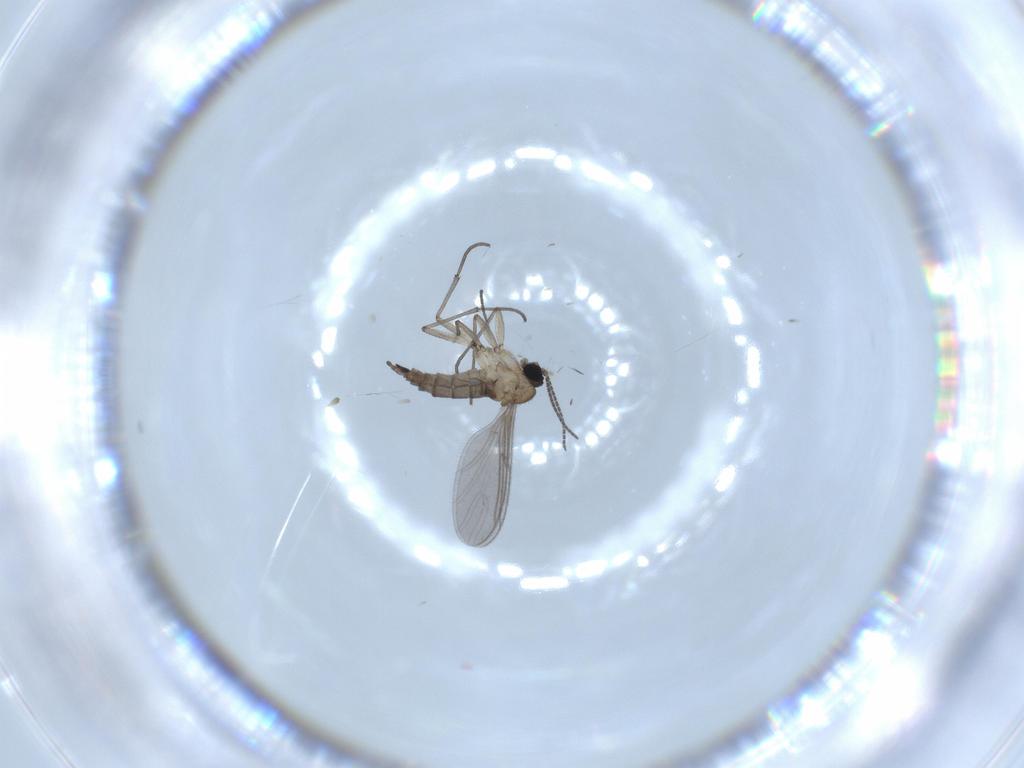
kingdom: Animalia
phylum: Arthropoda
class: Insecta
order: Diptera
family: Sciaridae
